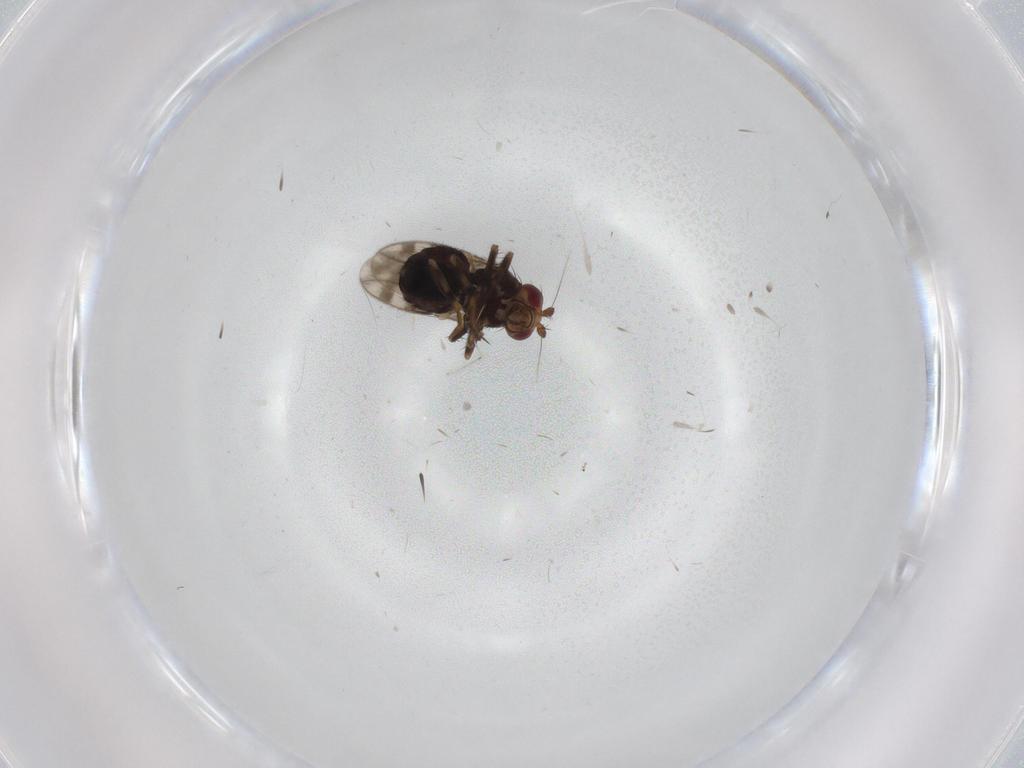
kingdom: Animalia
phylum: Arthropoda
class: Insecta
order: Diptera
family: Sphaeroceridae
